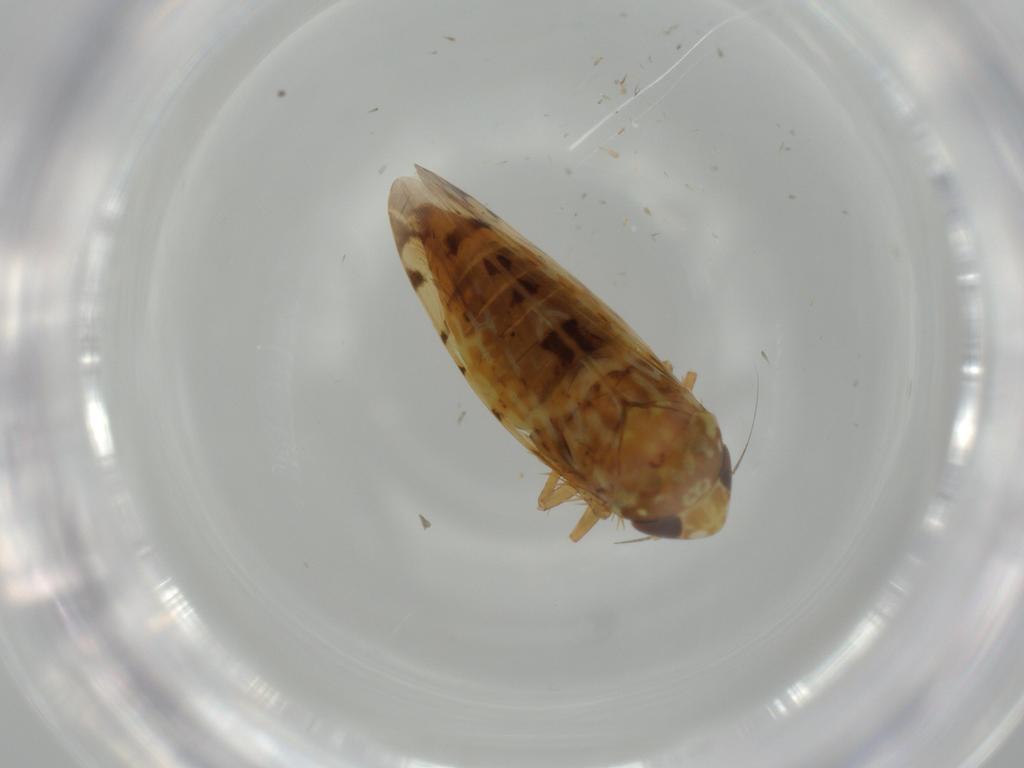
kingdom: Animalia
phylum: Arthropoda
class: Insecta
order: Hemiptera
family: Cicadellidae
